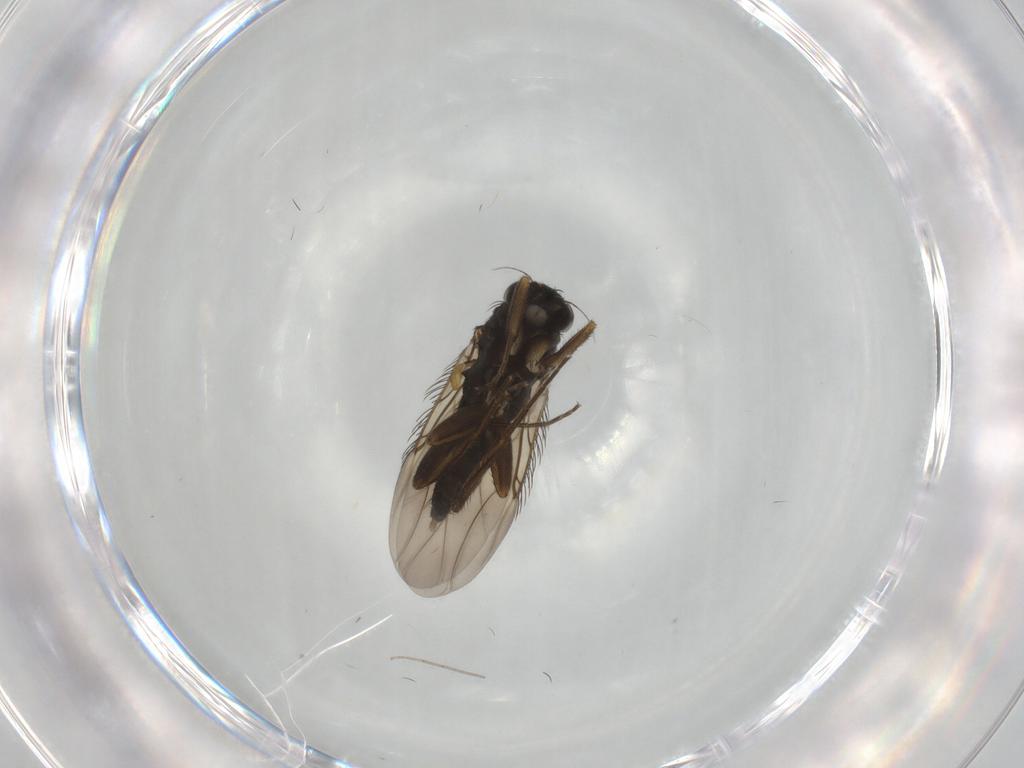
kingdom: Animalia
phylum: Arthropoda
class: Insecta
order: Diptera
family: Phoridae
